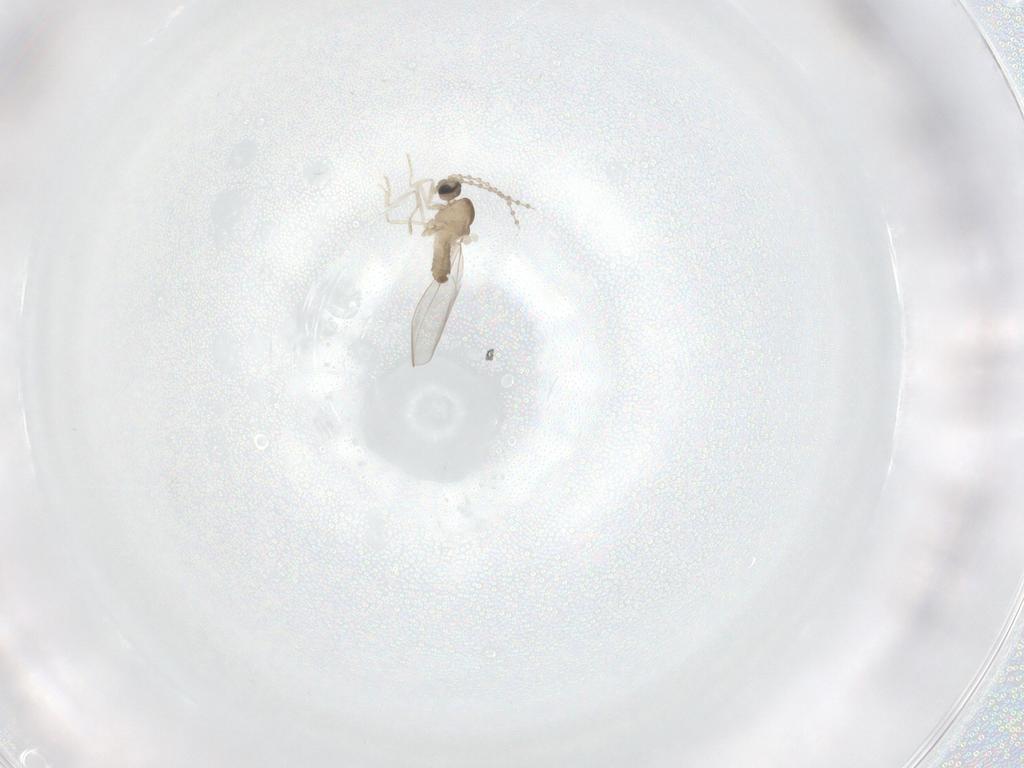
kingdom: Animalia
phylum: Arthropoda
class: Insecta
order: Diptera
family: Cecidomyiidae
